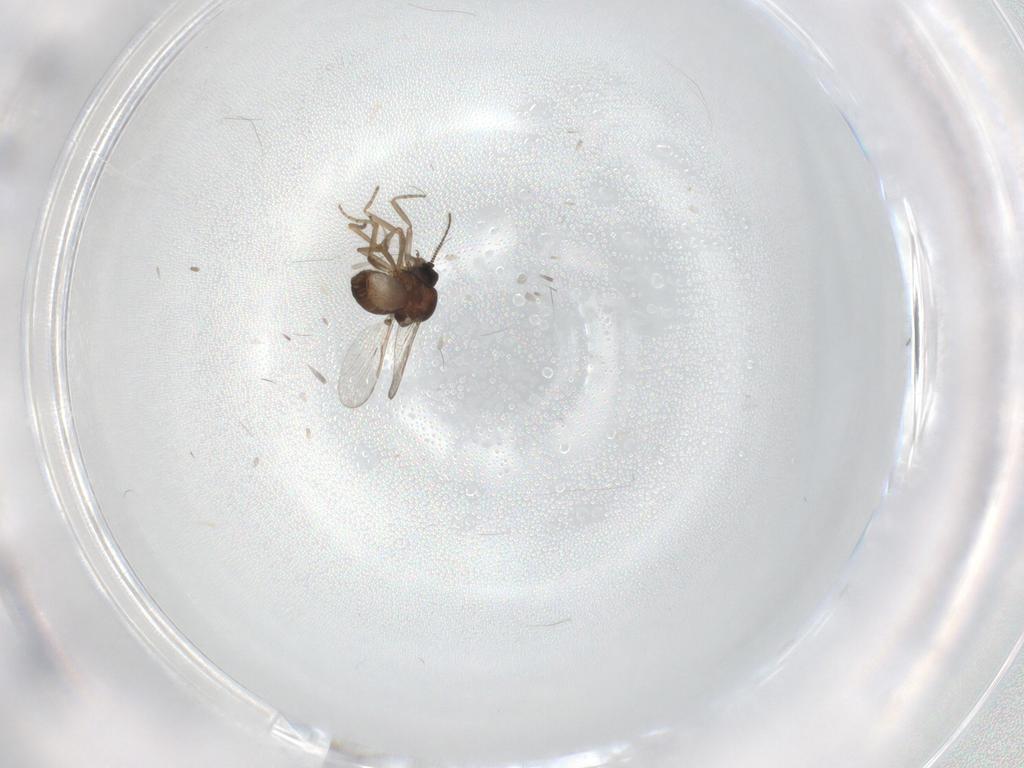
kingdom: Animalia
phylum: Arthropoda
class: Insecta
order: Diptera
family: Ceratopogonidae
